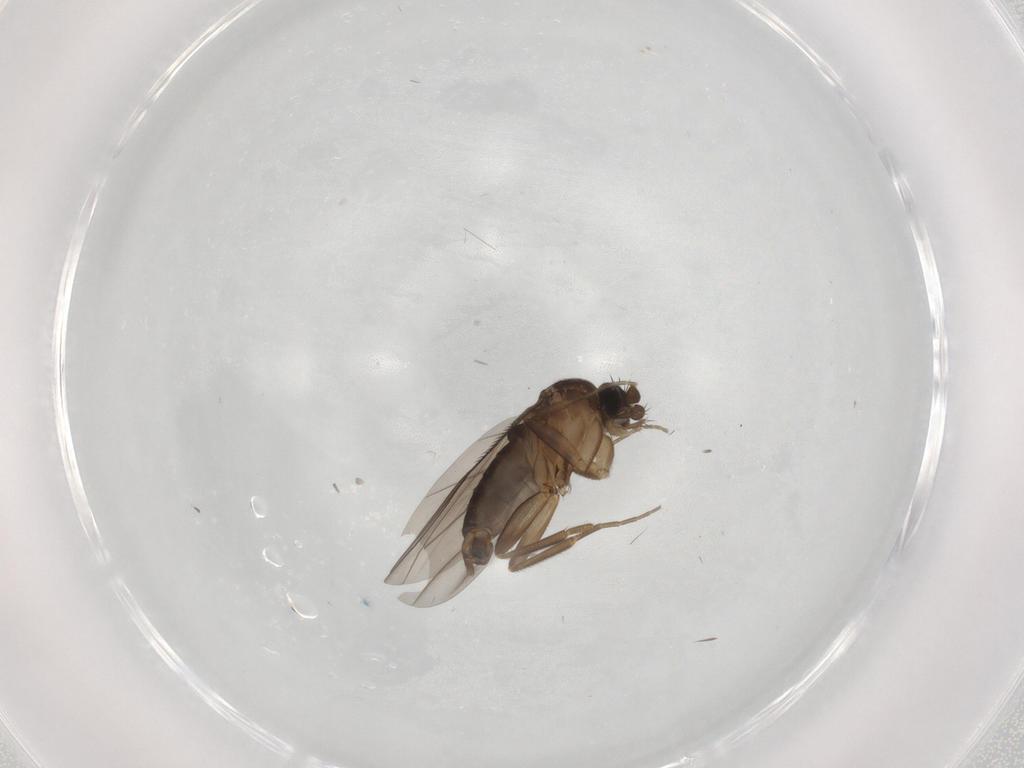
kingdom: Animalia
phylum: Arthropoda
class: Insecta
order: Diptera
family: Phoridae
